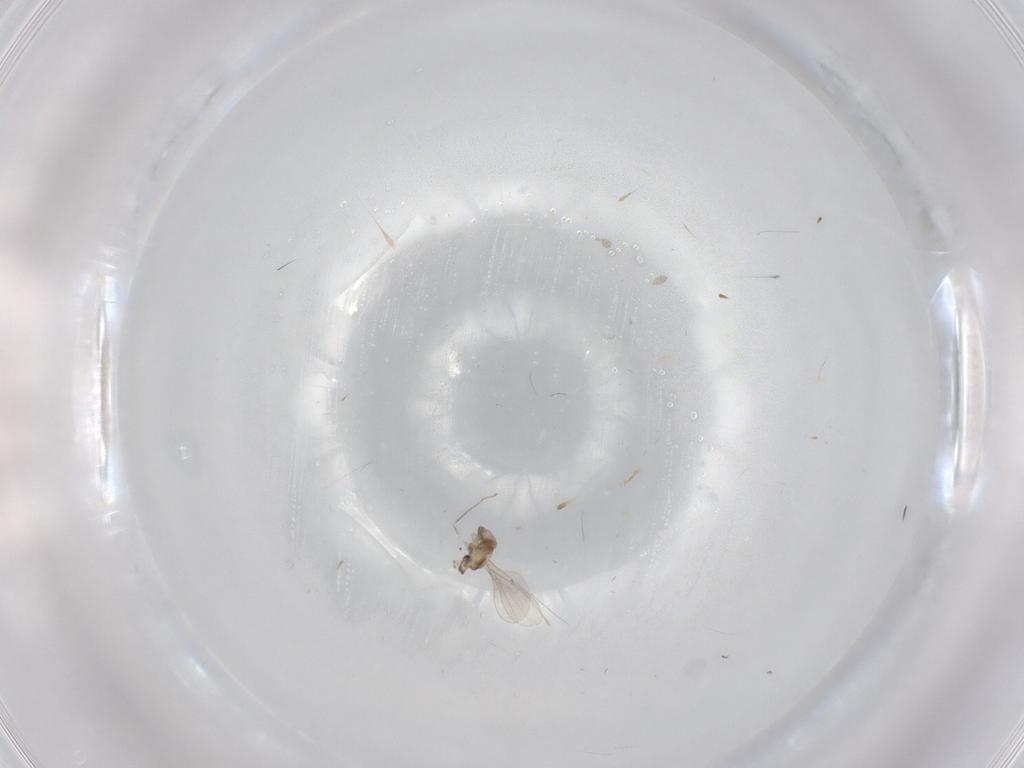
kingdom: Animalia
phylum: Arthropoda
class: Insecta
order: Diptera
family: Cecidomyiidae
